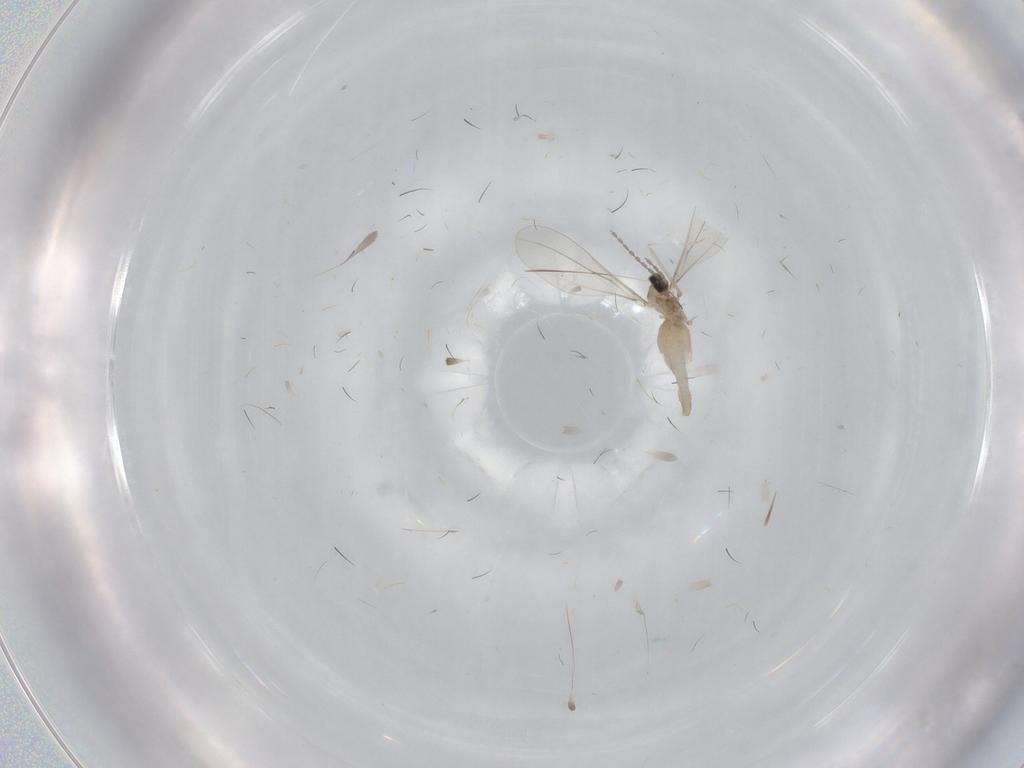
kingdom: Animalia
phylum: Arthropoda
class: Insecta
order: Diptera
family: Cecidomyiidae
